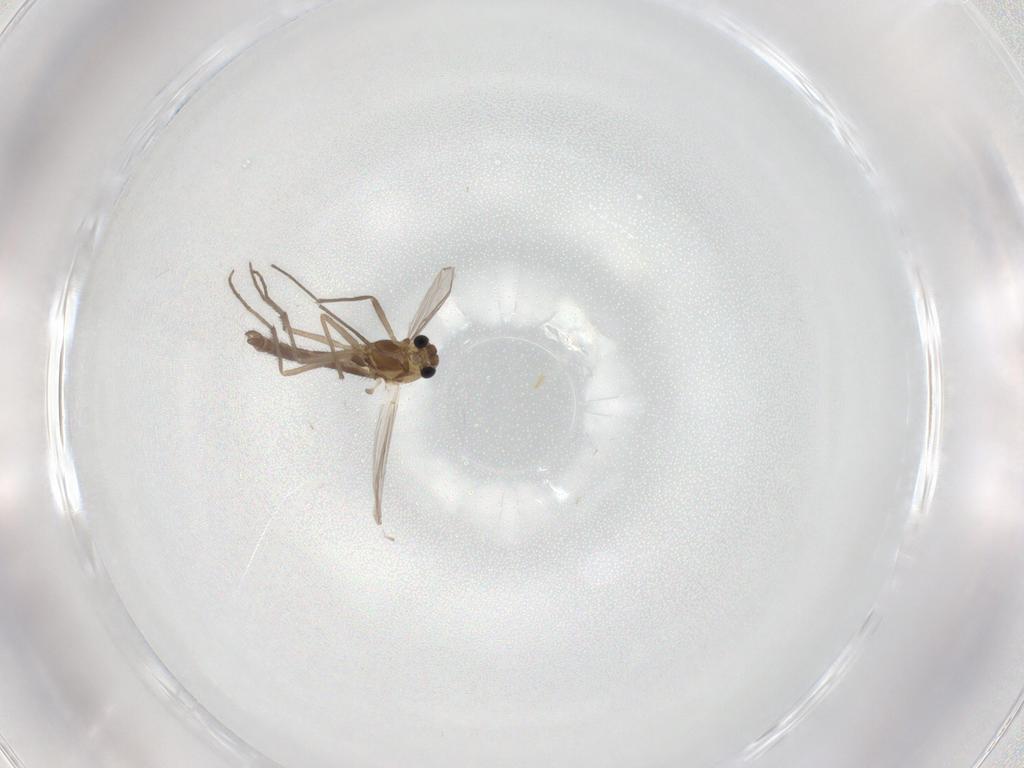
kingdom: Animalia
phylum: Arthropoda
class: Insecta
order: Diptera
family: Chironomidae
